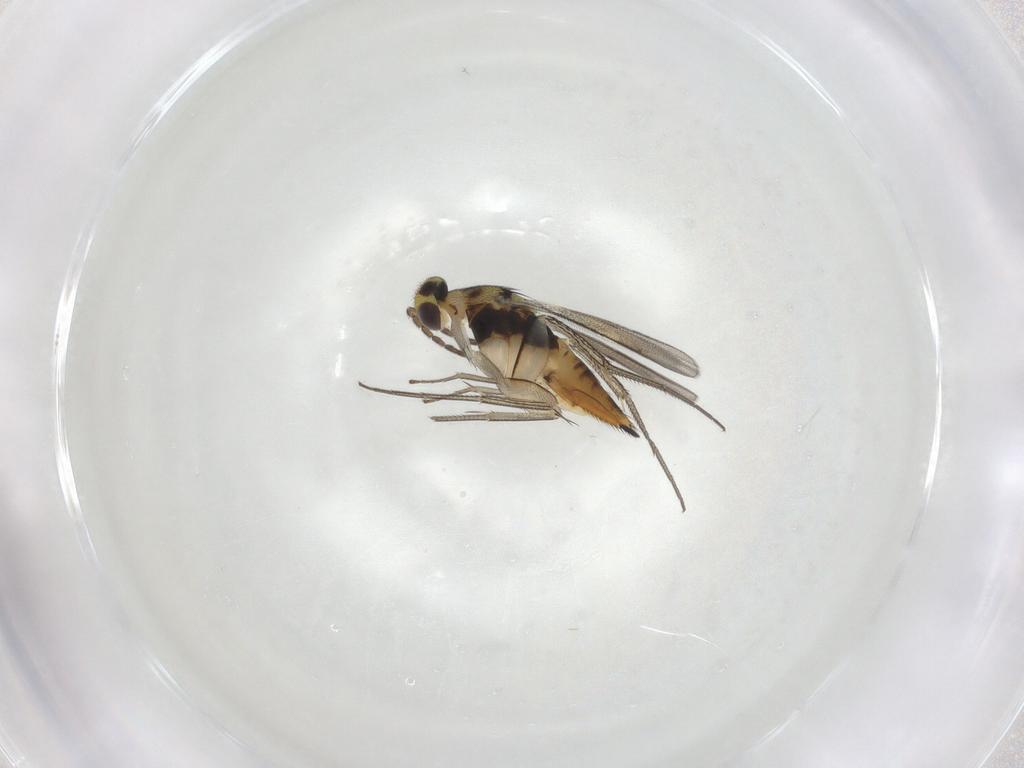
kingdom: Animalia
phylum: Arthropoda
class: Insecta
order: Hymenoptera
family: Eulophidae
